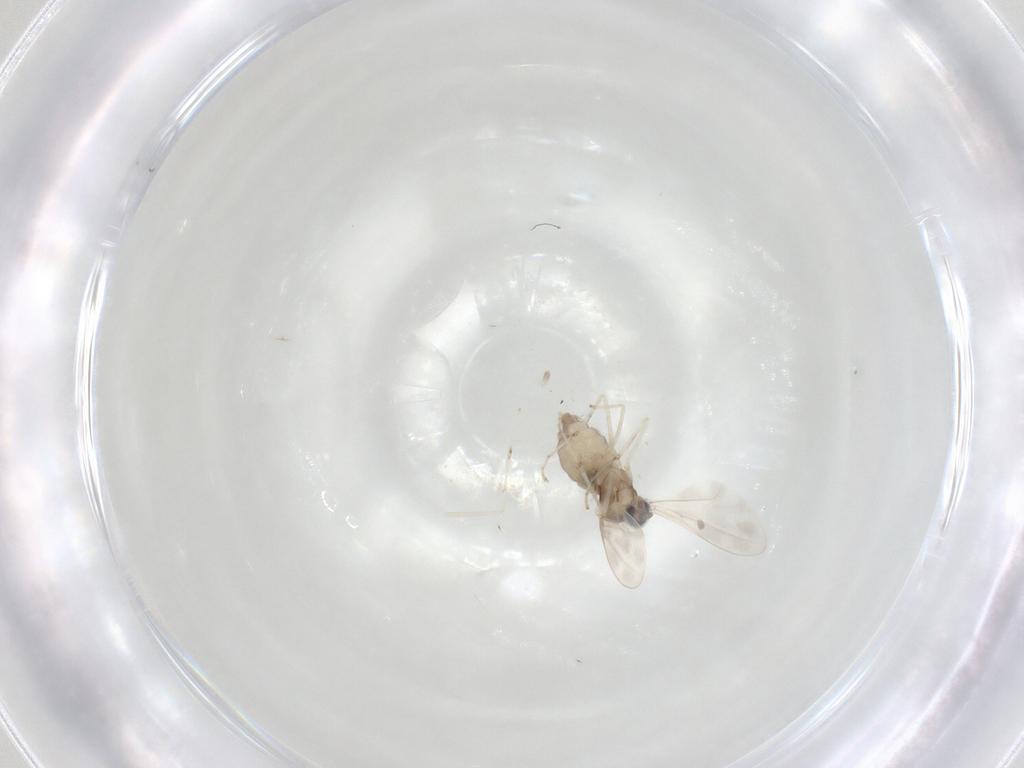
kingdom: Animalia
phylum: Arthropoda
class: Insecta
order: Diptera
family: Cecidomyiidae
